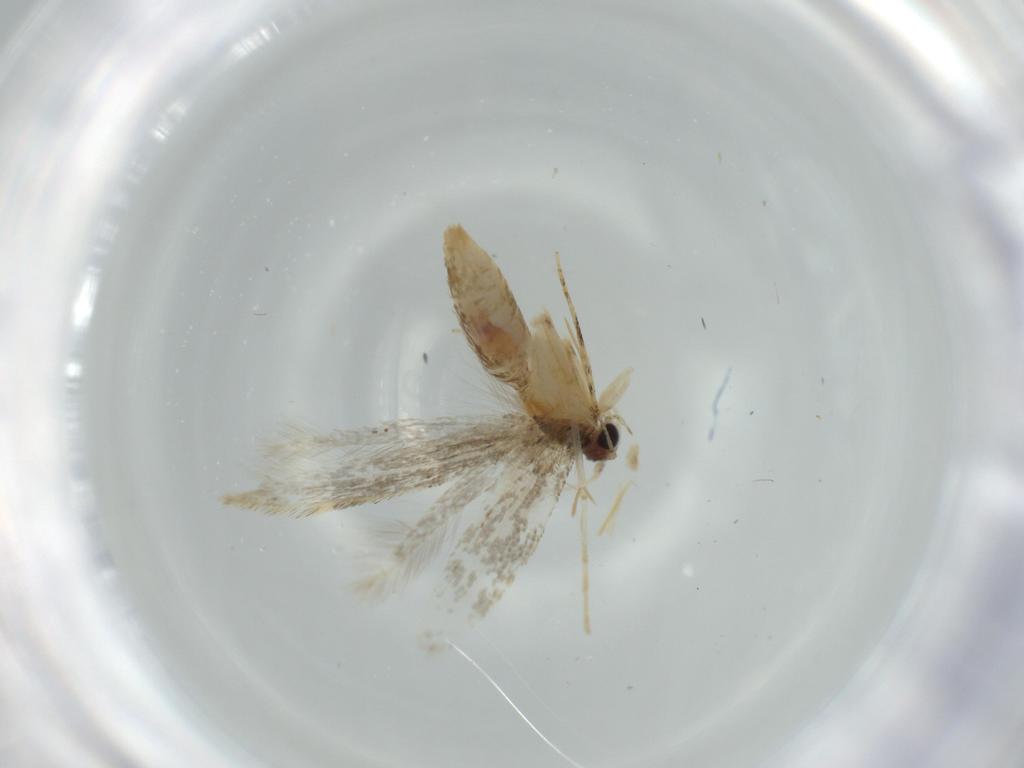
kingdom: Animalia
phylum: Arthropoda
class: Insecta
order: Lepidoptera
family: Tineidae
